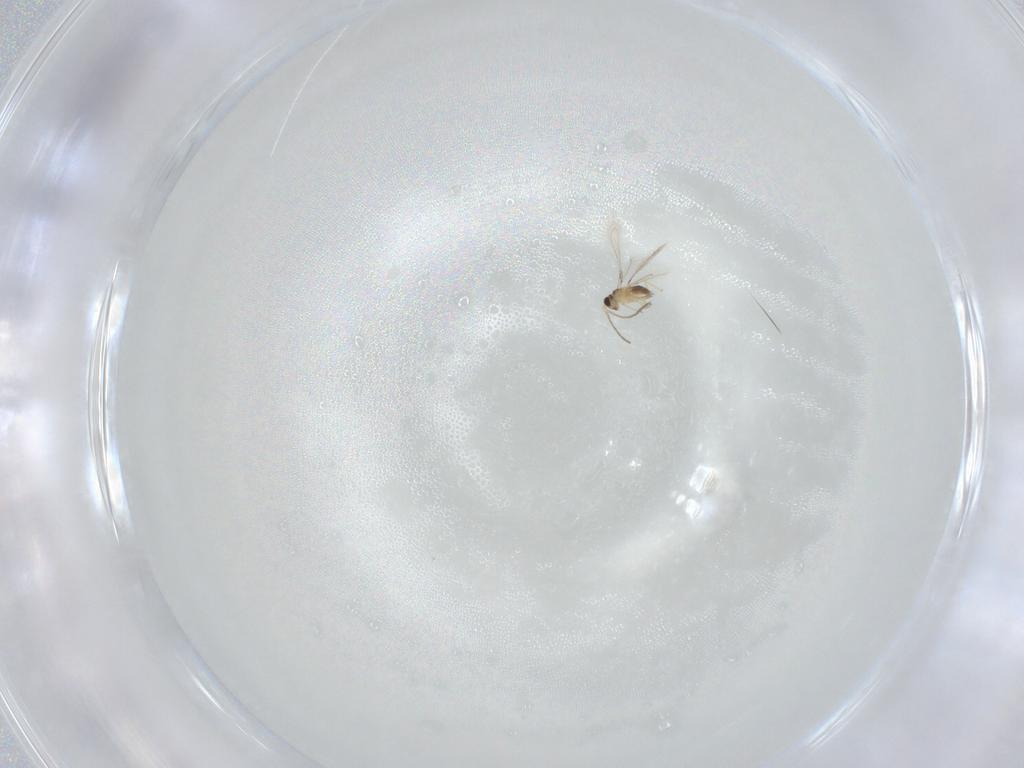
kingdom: Animalia
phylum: Arthropoda
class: Insecta
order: Hymenoptera
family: Mymaridae
